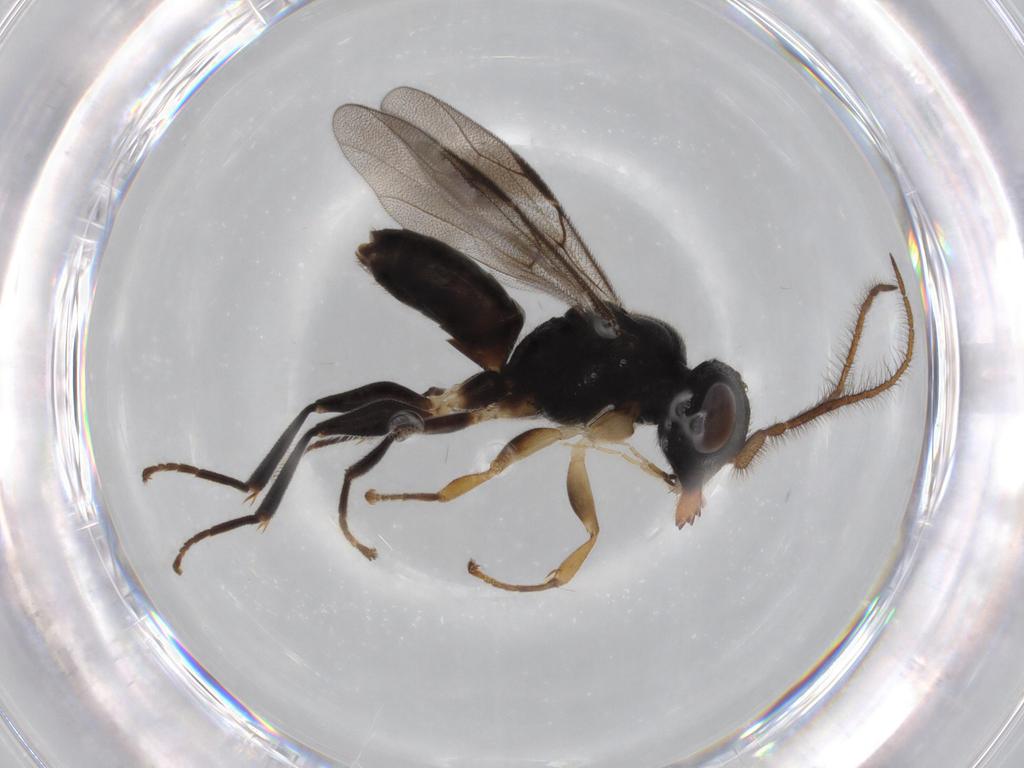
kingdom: Animalia
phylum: Arthropoda
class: Insecta
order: Hymenoptera
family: Dryinidae
